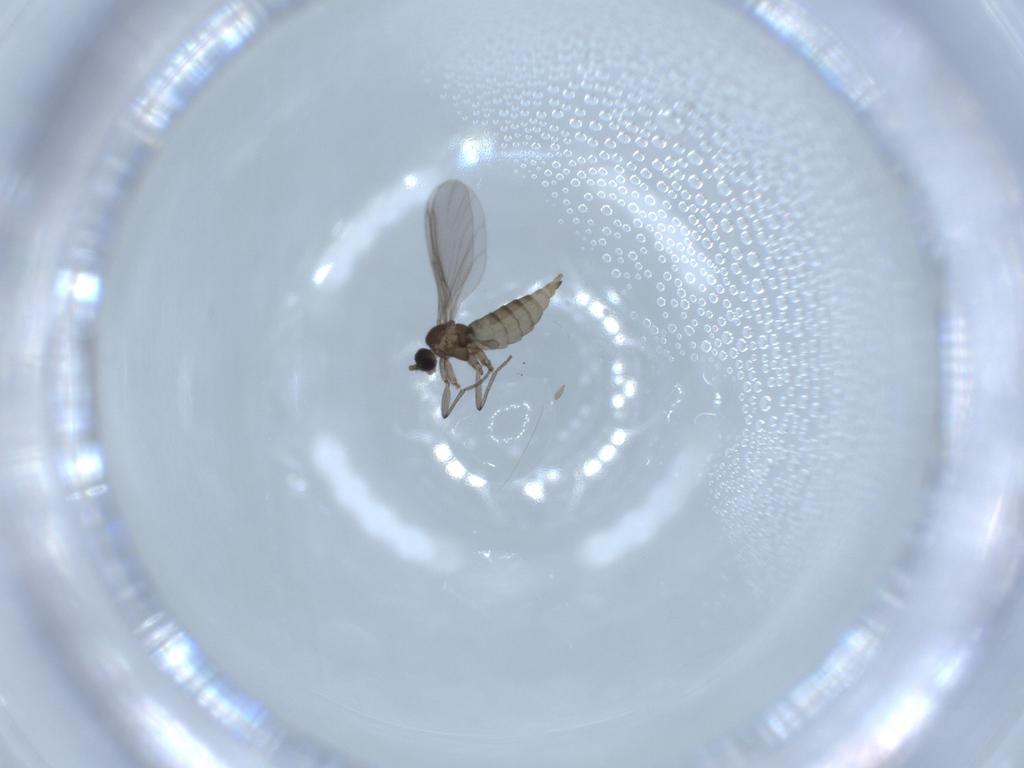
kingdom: Animalia
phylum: Arthropoda
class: Insecta
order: Diptera
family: Sciaridae
